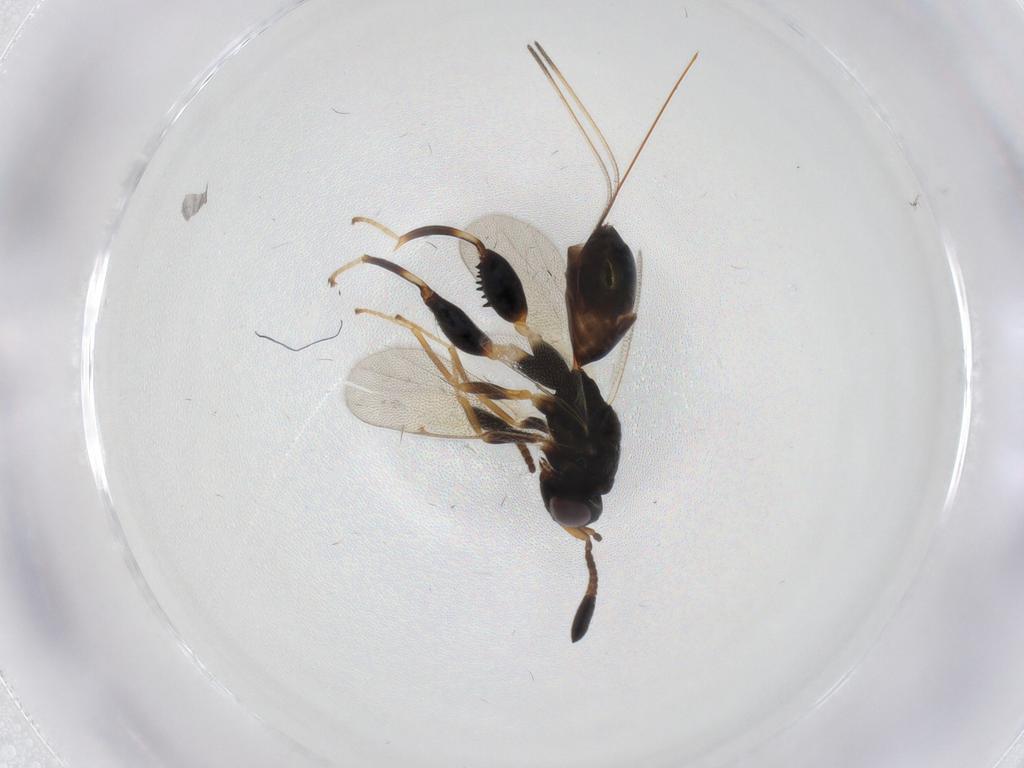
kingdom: Animalia
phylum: Arthropoda
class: Insecta
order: Hymenoptera
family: Torymidae
